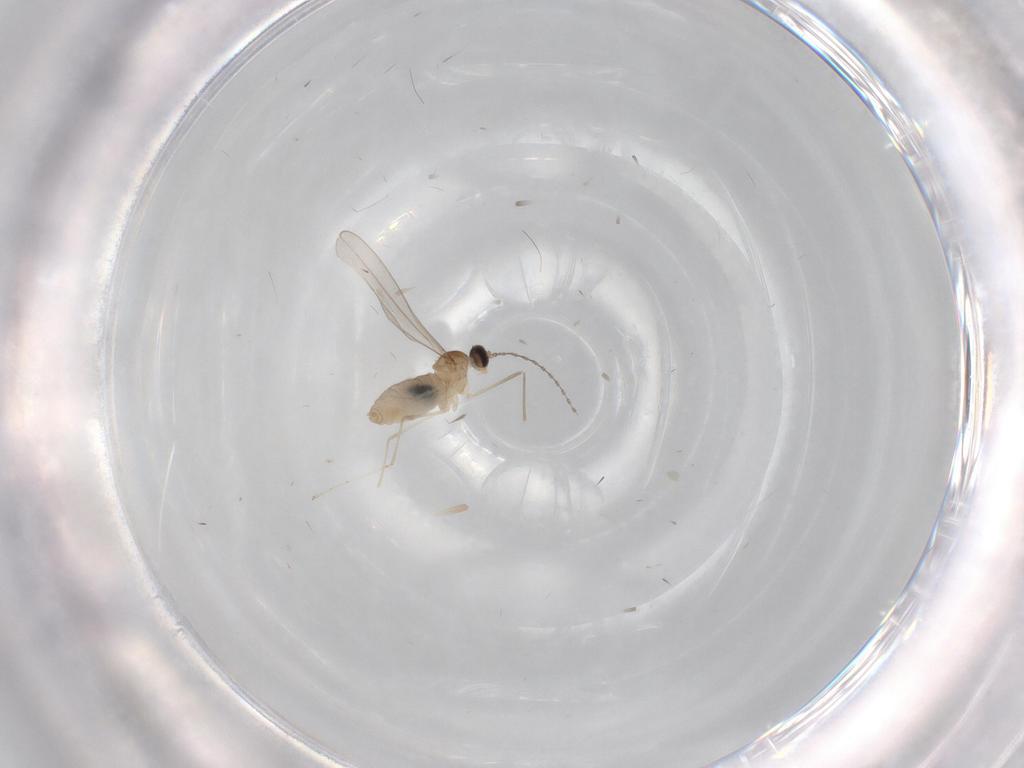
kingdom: Animalia
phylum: Arthropoda
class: Insecta
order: Diptera
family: Cecidomyiidae
